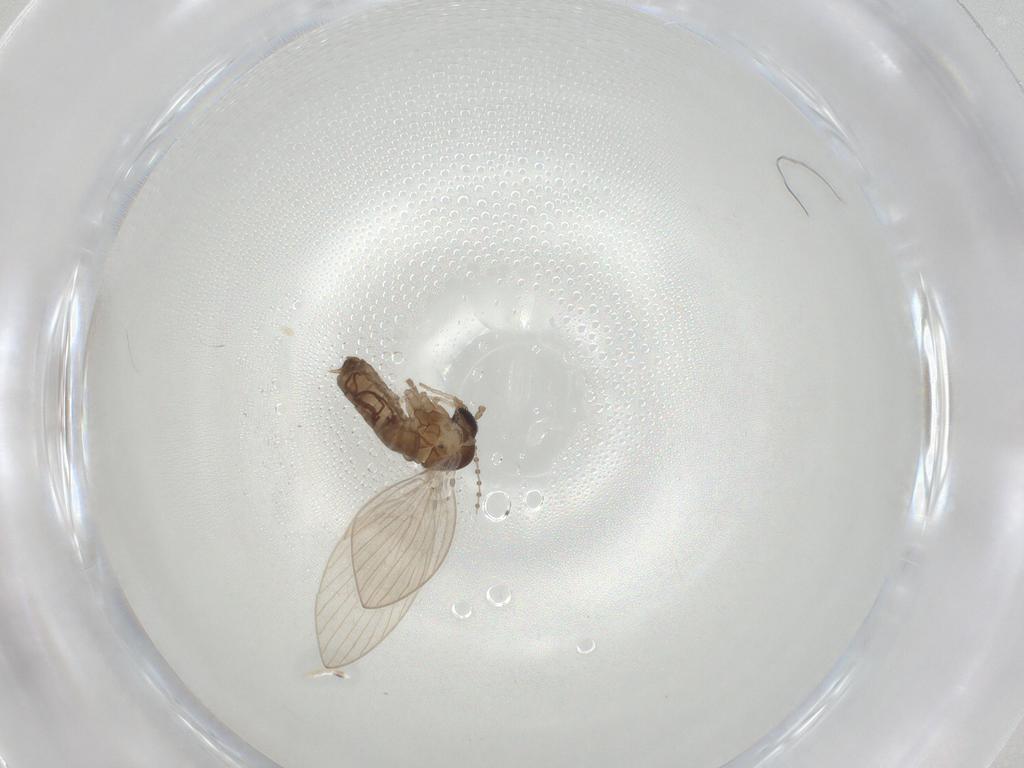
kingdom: Animalia
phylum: Arthropoda
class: Insecta
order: Diptera
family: Psychodidae
